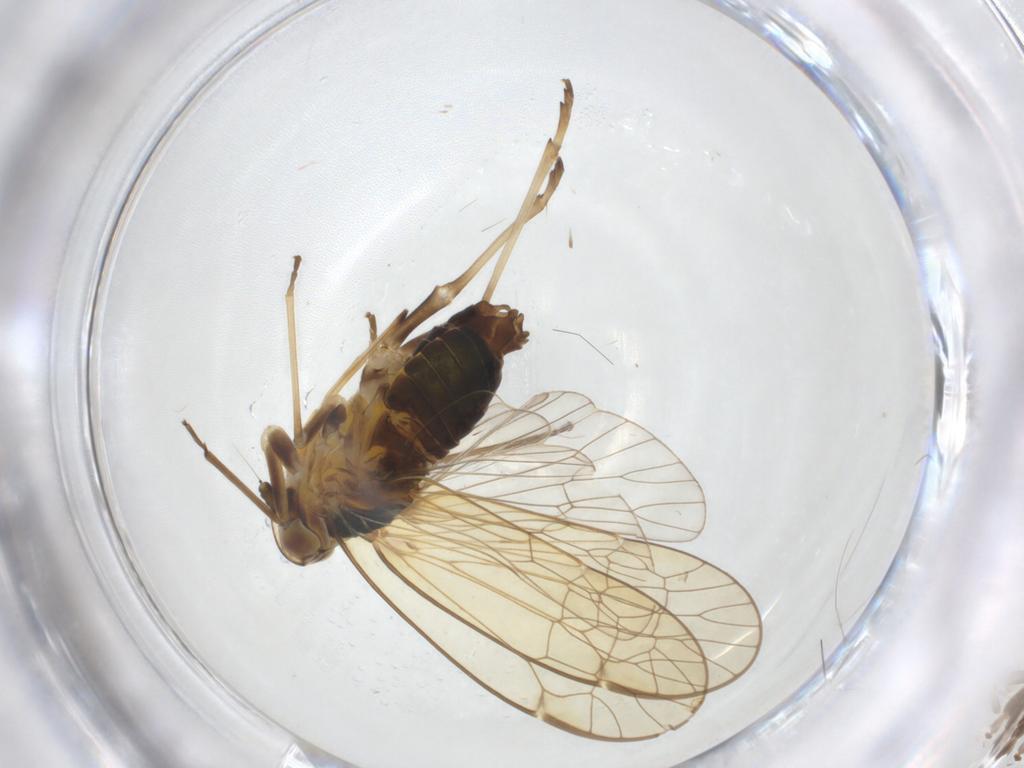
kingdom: Animalia
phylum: Arthropoda
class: Insecta
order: Hemiptera
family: Kinnaridae
